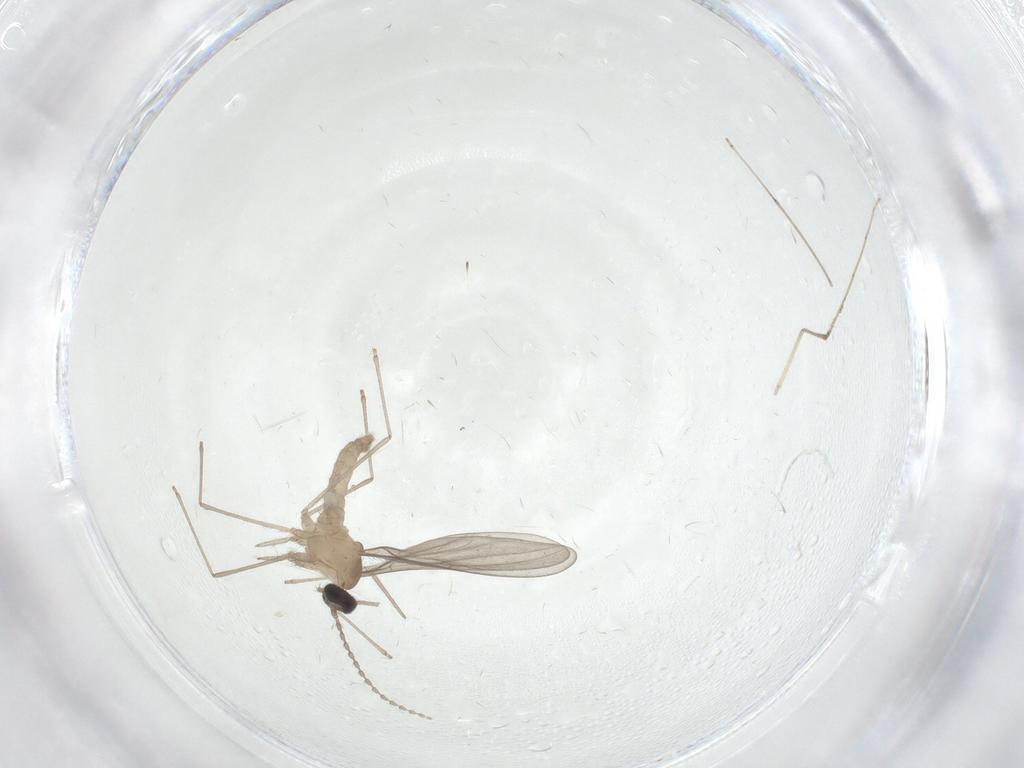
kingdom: Animalia
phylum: Arthropoda
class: Insecta
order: Diptera
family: Cecidomyiidae
